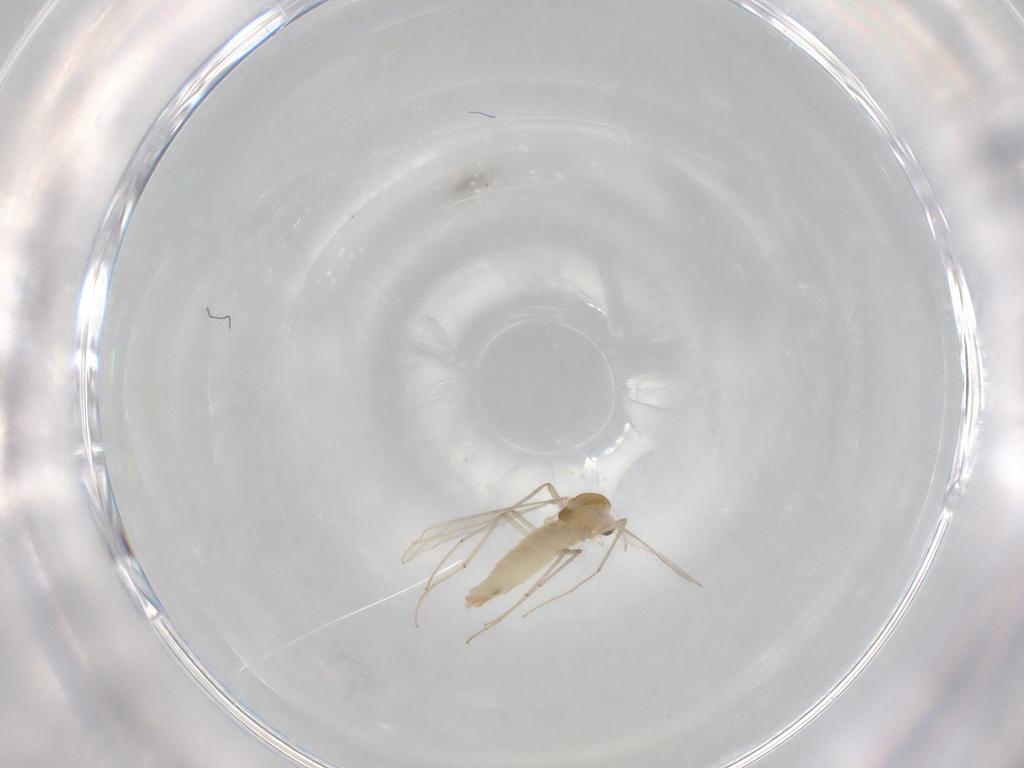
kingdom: Animalia
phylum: Arthropoda
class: Insecta
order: Diptera
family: Chironomidae
